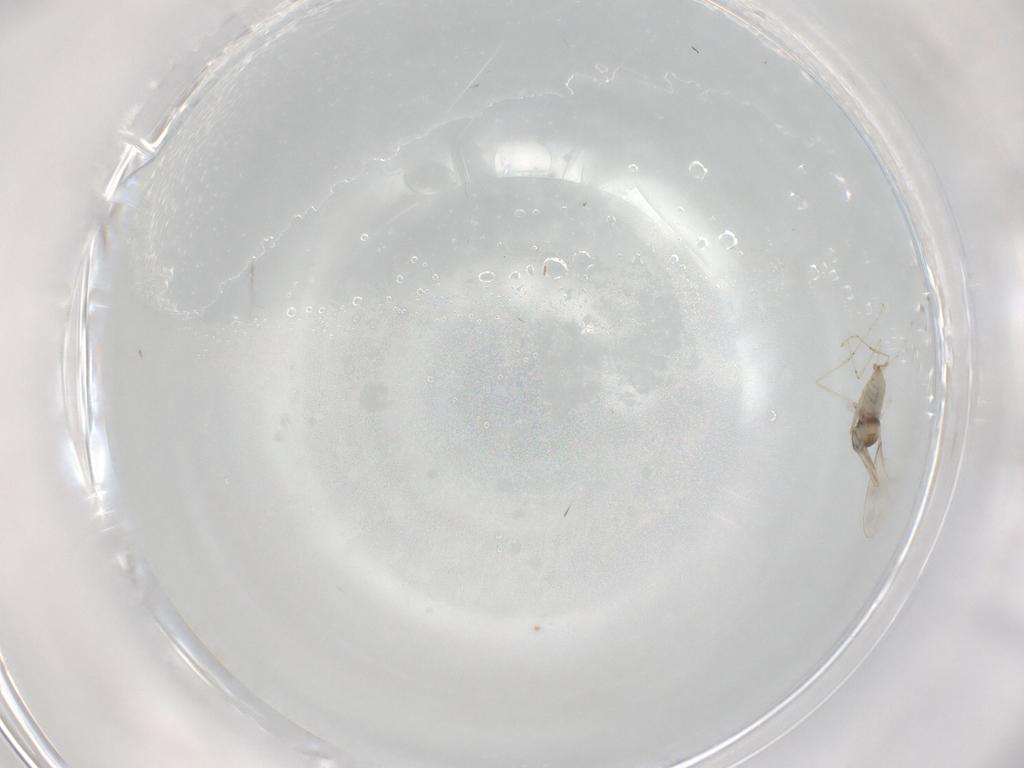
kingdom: Animalia
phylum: Arthropoda
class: Insecta
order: Diptera
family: Cecidomyiidae
